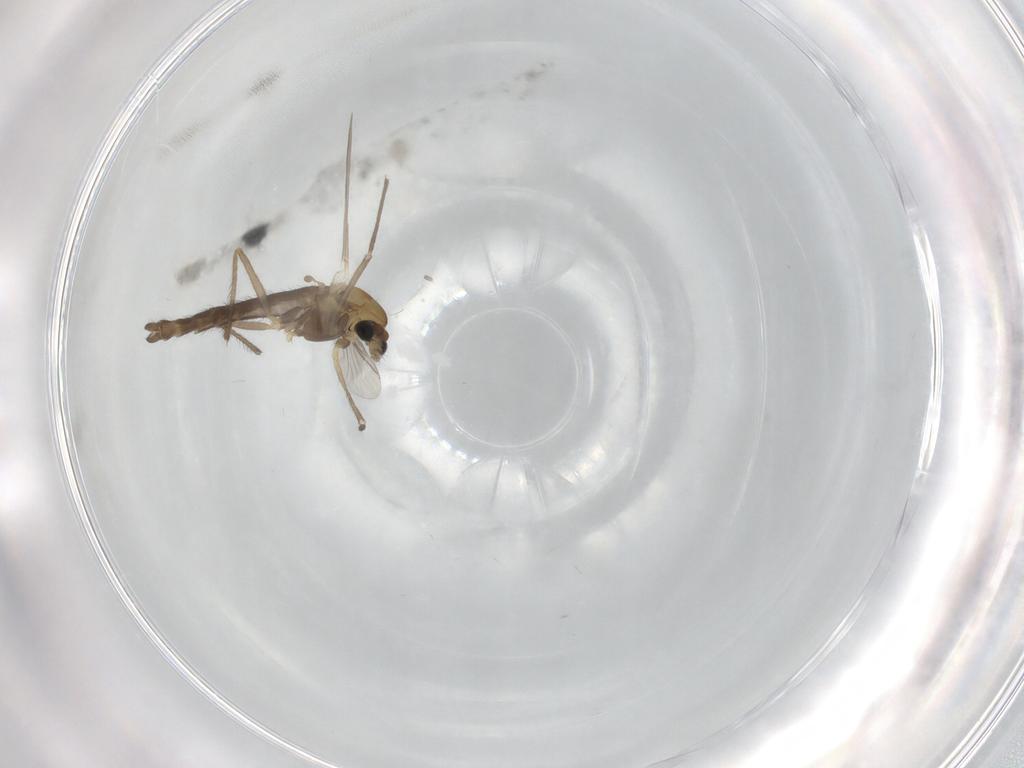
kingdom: Animalia
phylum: Arthropoda
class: Insecta
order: Diptera
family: Chironomidae
